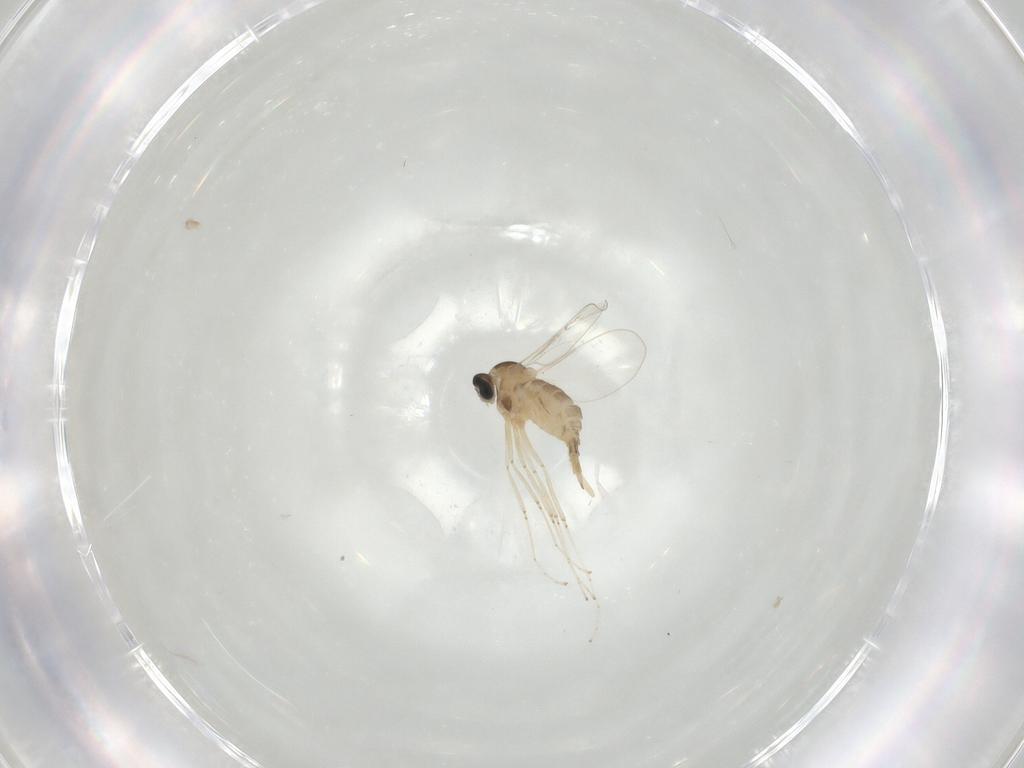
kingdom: Animalia
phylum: Arthropoda
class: Insecta
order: Diptera
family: Cecidomyiidae
